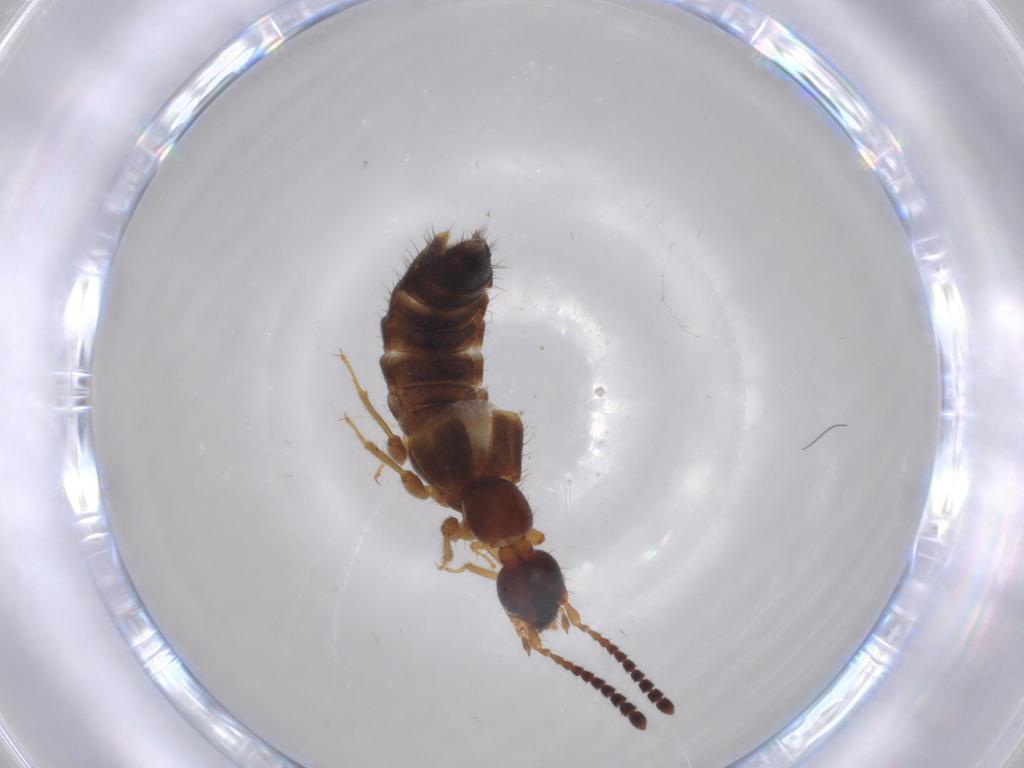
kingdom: Animalia
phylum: Arthropoda
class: Insecta
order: Coleoptera
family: Staphylinidae
